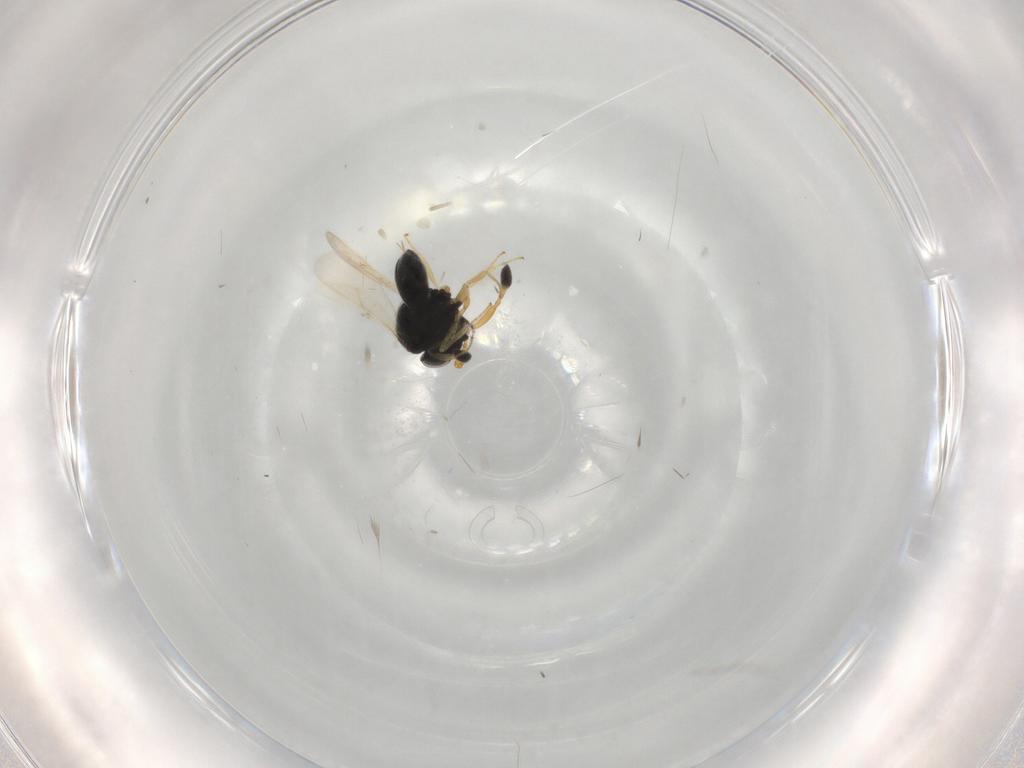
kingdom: Animalia
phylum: Arthropoda
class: Insecta
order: Hymenoptera
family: Scelionidae
